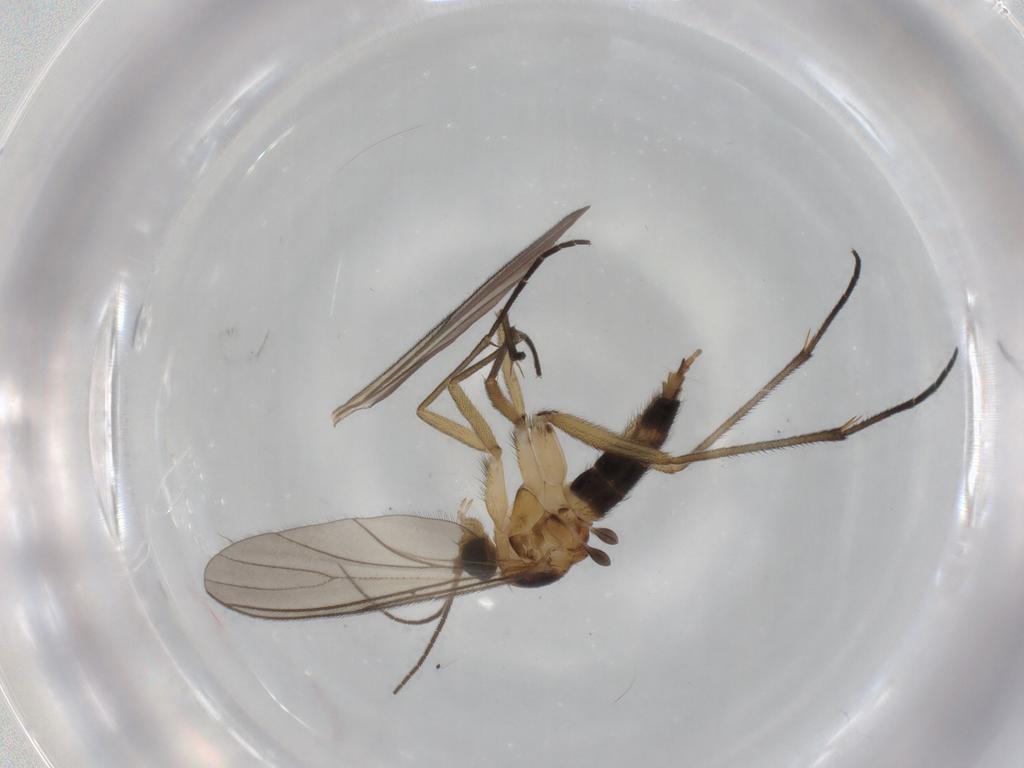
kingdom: Animalia
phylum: Arthropoda
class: Insecta
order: Diptera
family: Sciaridae
